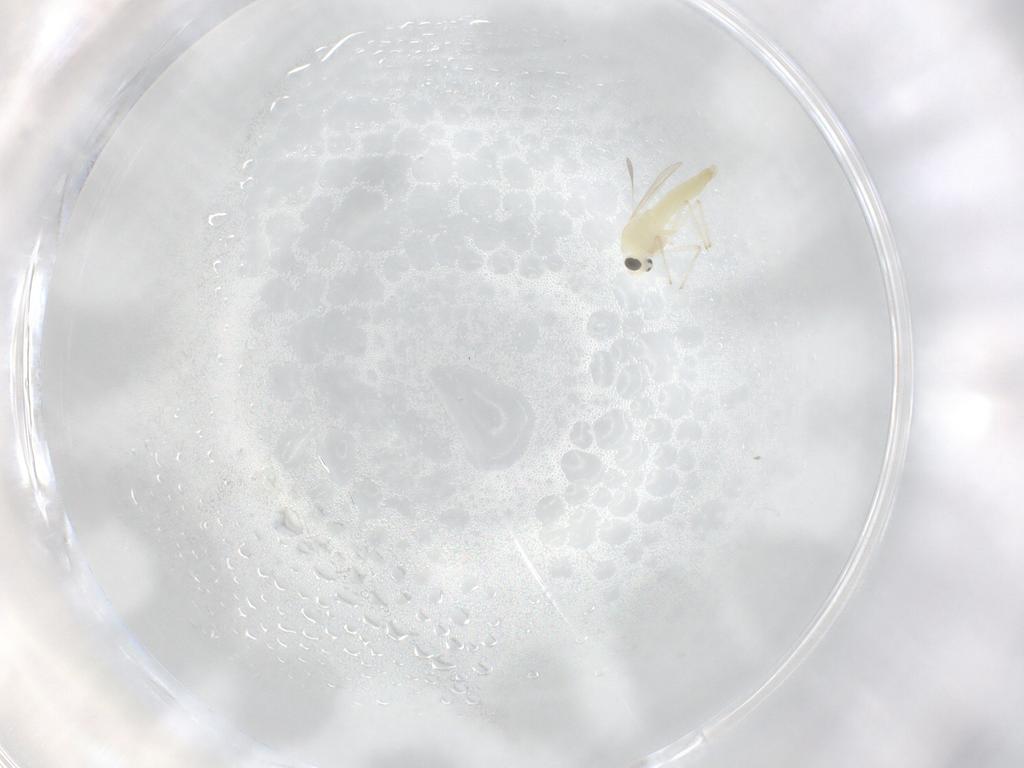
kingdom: Animalia
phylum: Arthropoda
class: Insecta
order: Diptera
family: Chironomidae
